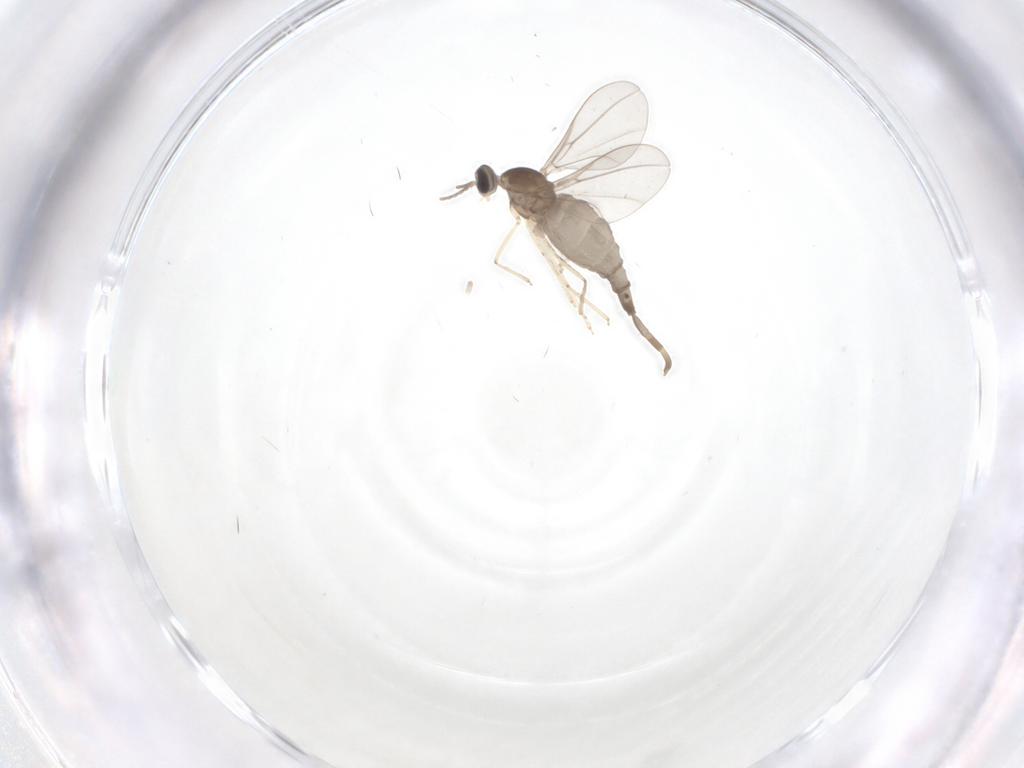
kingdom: Animalia
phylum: Arthropoda
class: Insecta
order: Diptera
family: Cecidomyiidae
